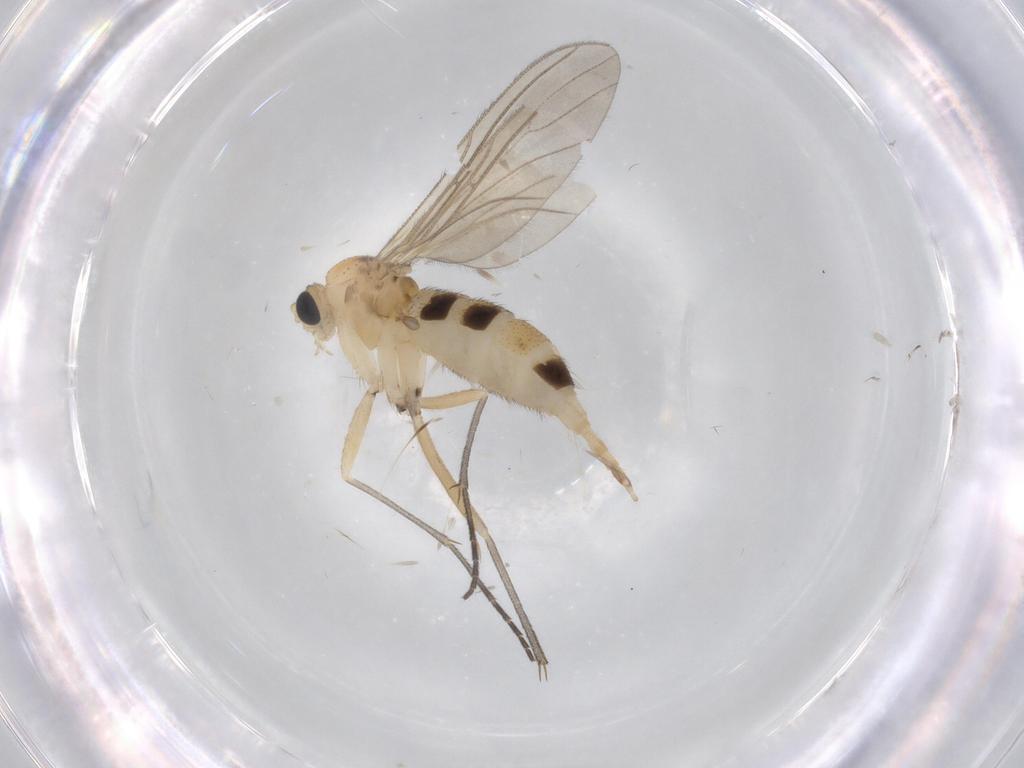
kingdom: Animalia
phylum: Arthropoda
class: Insecta
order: Diptera
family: Sciaridae
